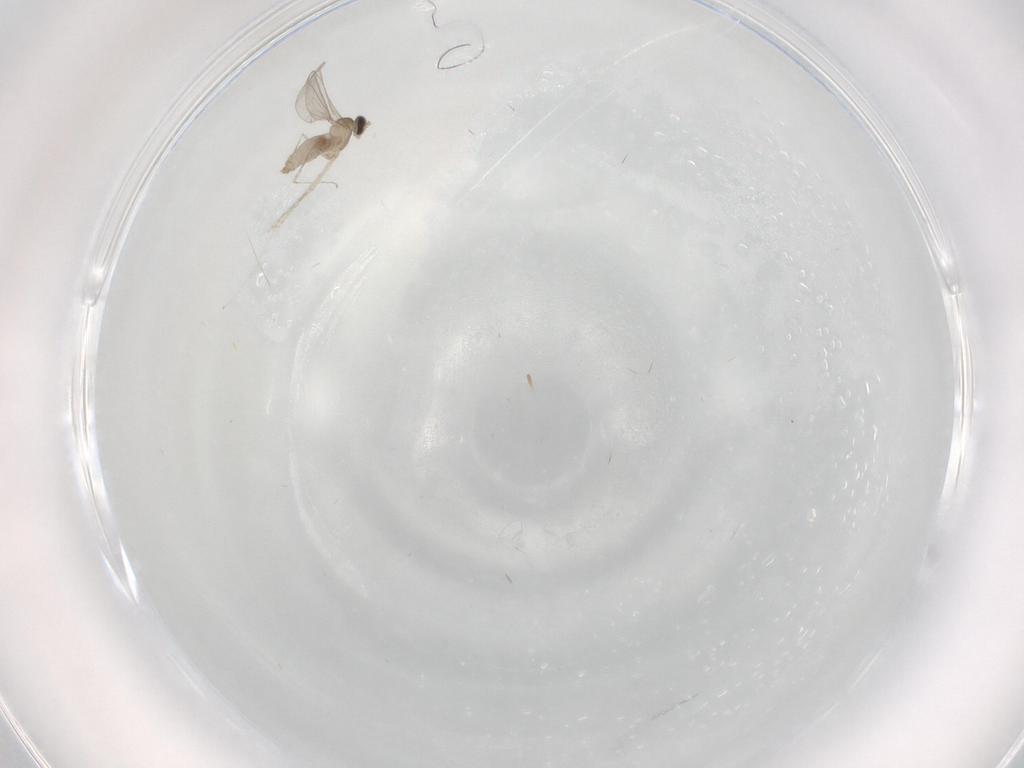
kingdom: Animalia
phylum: Arthropoda
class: Insecta
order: Diptera
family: Cecidomyiidae
